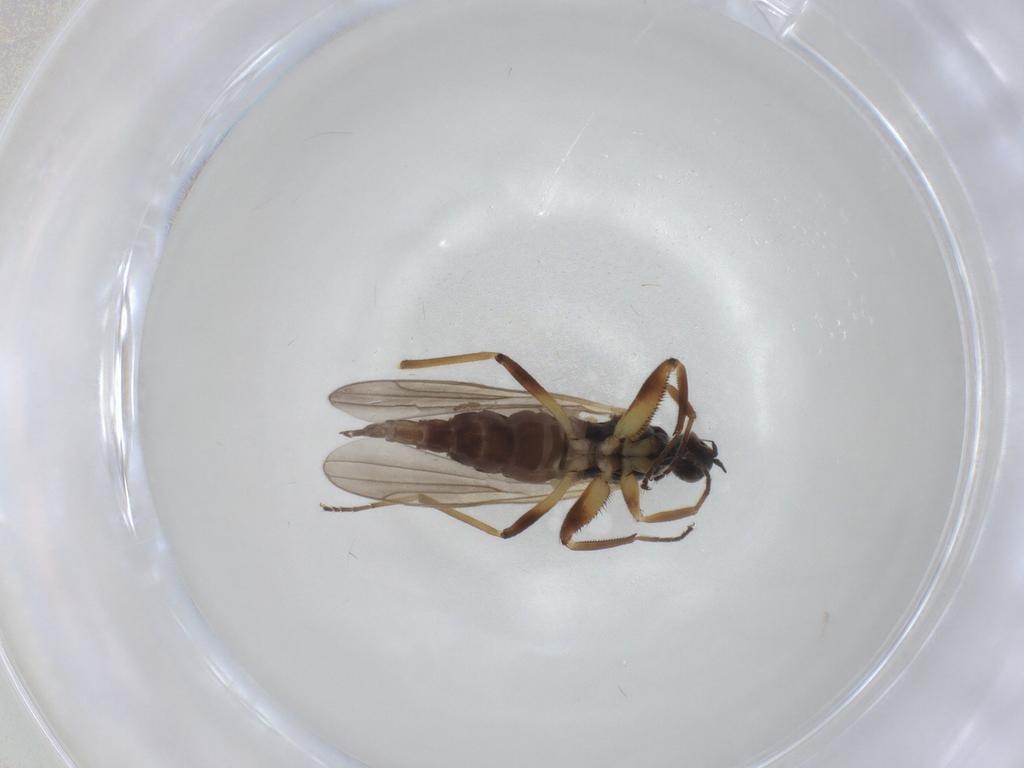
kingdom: Animalia
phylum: Arthropoda
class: Insecta
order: Diptera
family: Hybotidae
